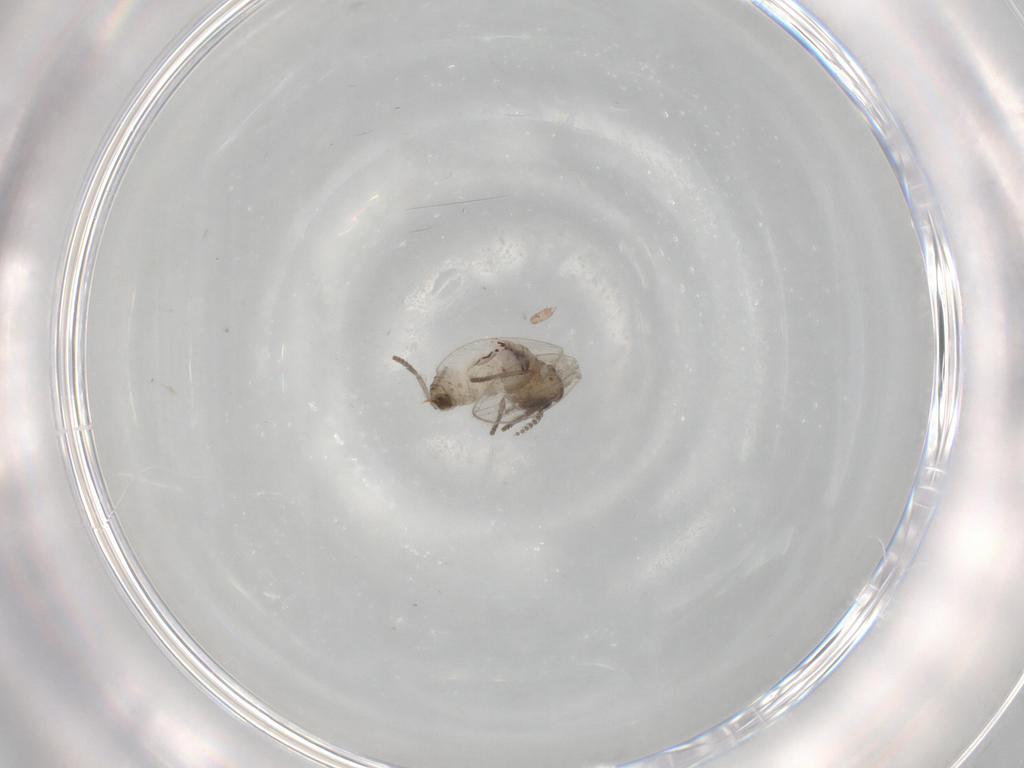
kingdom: Animalia
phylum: Arthropoda
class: Insecta
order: Diptera
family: Psychodidae
